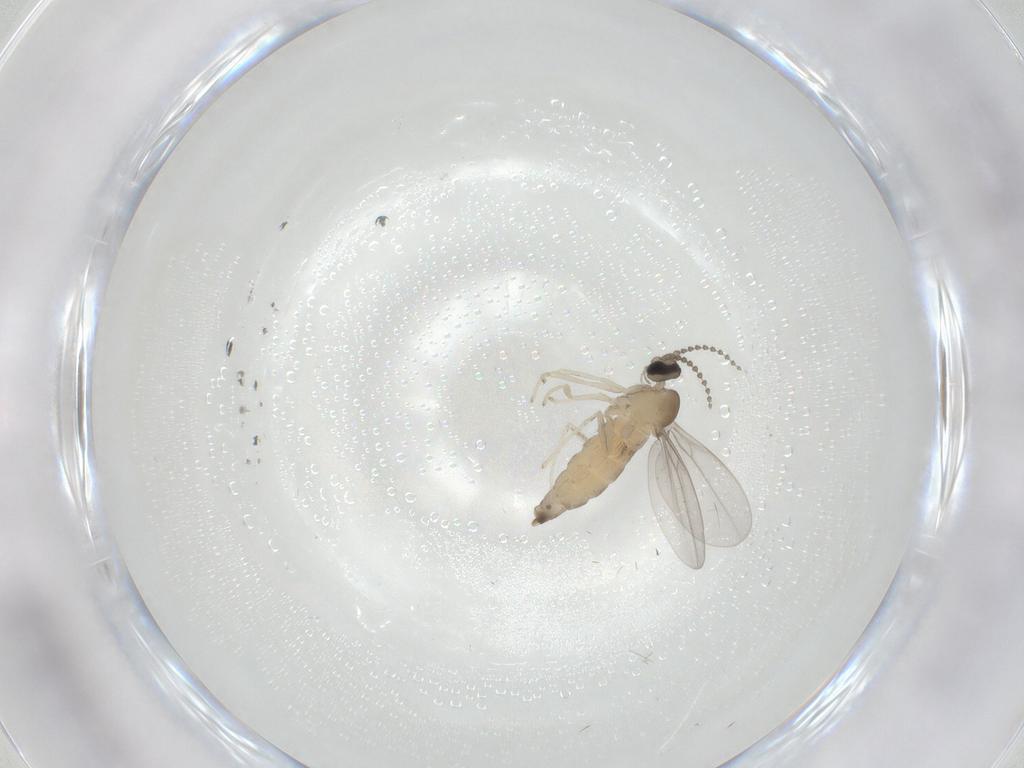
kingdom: Animalia
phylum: Arthropoda
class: Insecta
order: Diptera
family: Cecidomyiidae
